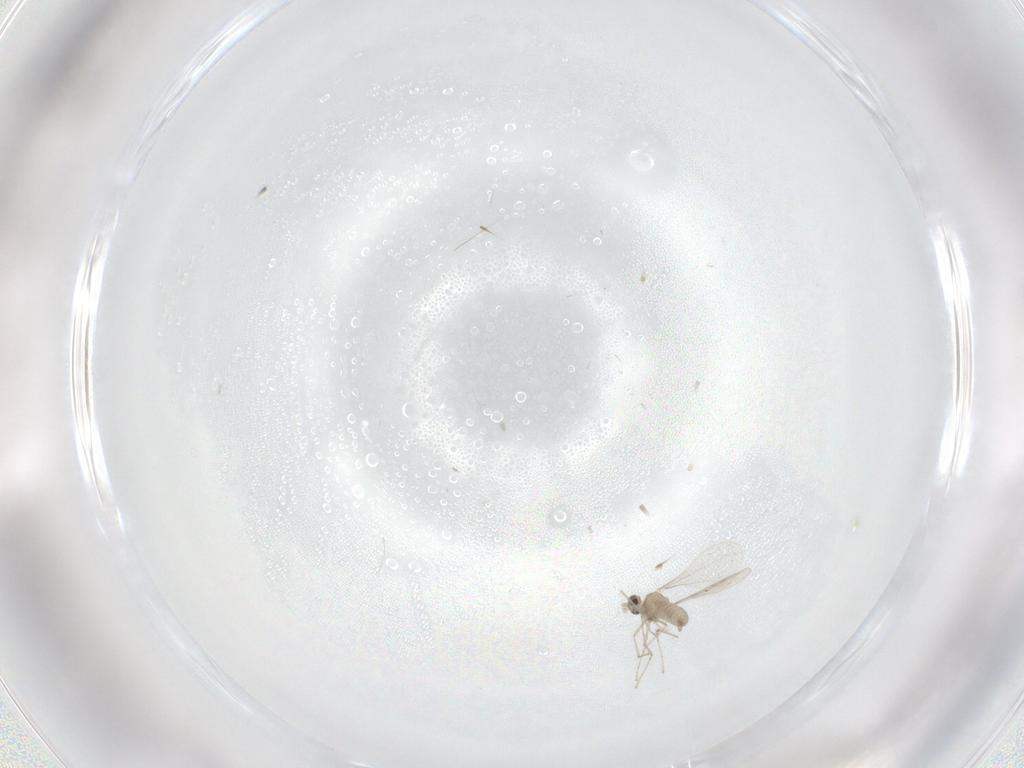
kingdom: Animalia
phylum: Arthropoda
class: Insecta
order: Diptera
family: Cecidomyiidae
